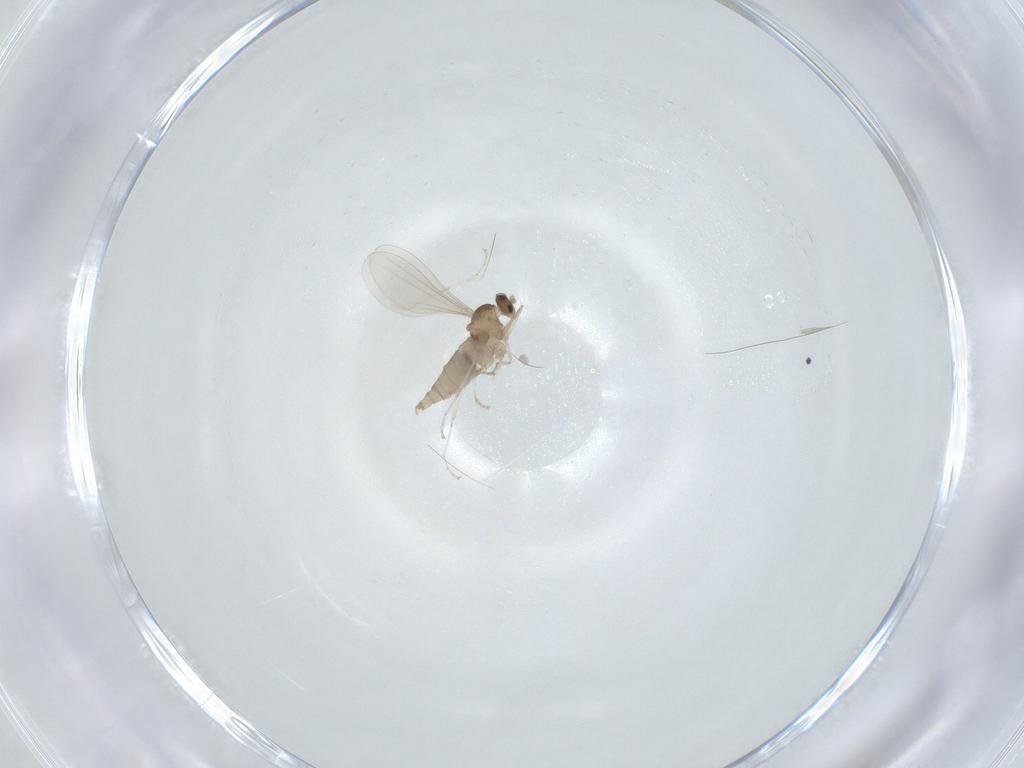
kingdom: Animalia
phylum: Arthropoda
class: Insecta
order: Diptera
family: Cecidomyiidae
